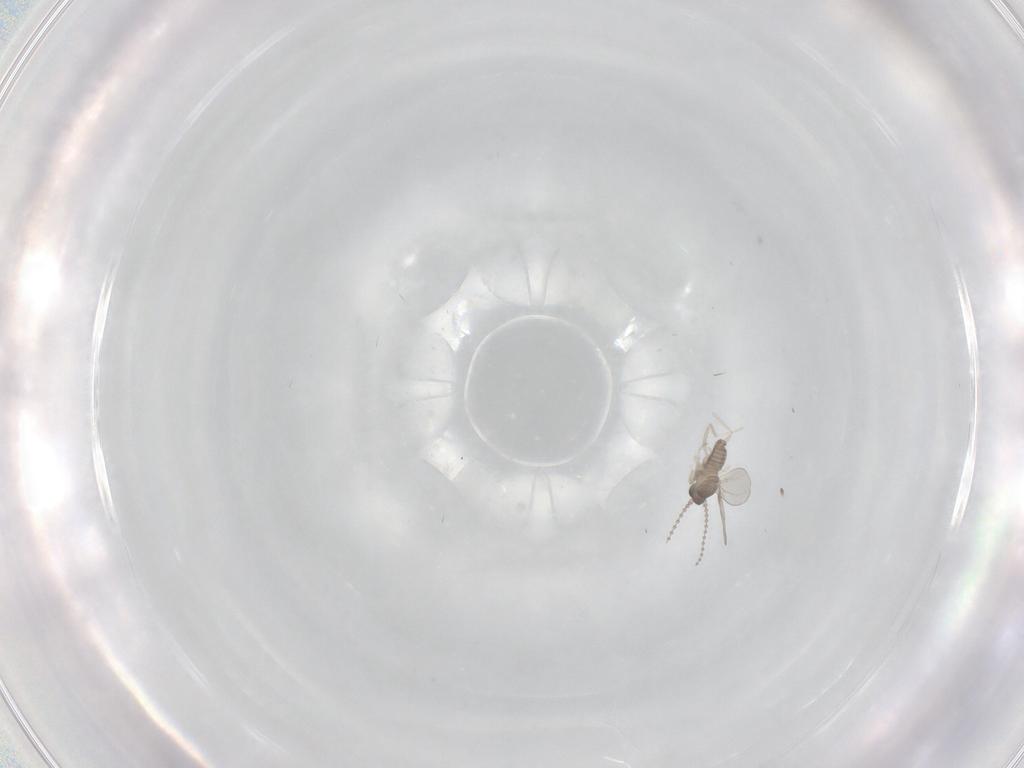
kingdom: Animalia
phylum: Arthropoda
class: Insecta
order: Diptera
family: Cecidomyiidae
